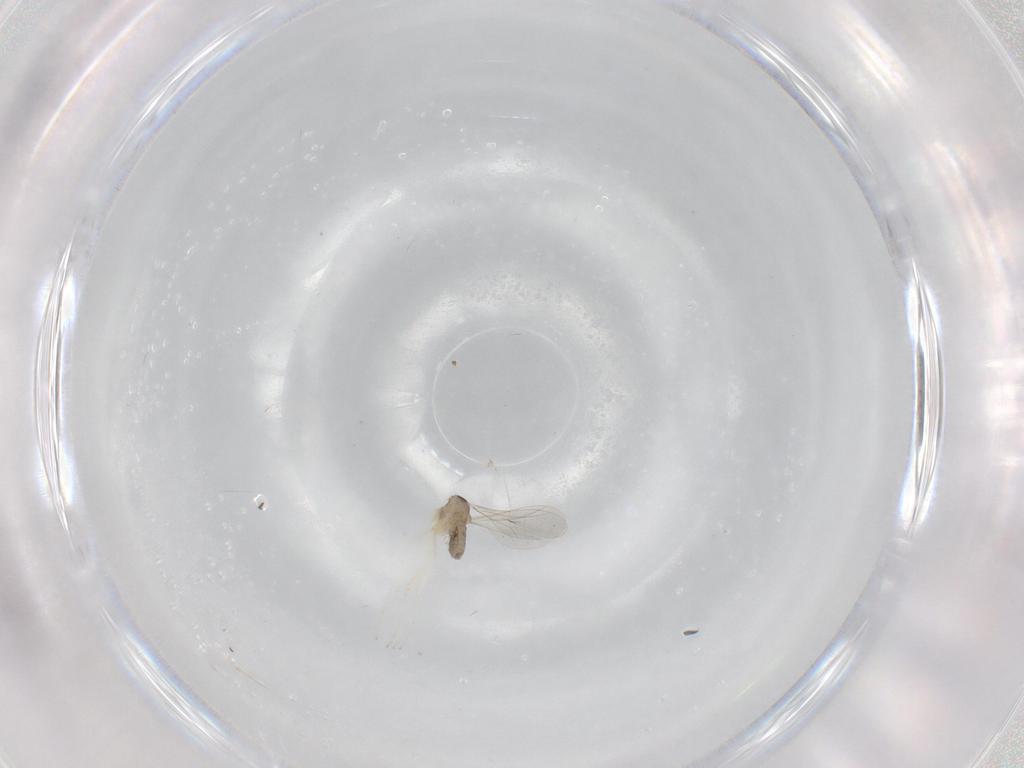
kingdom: Animalia
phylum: Arthropoda
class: Insecta
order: Diptera
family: Cecidomyiidae
